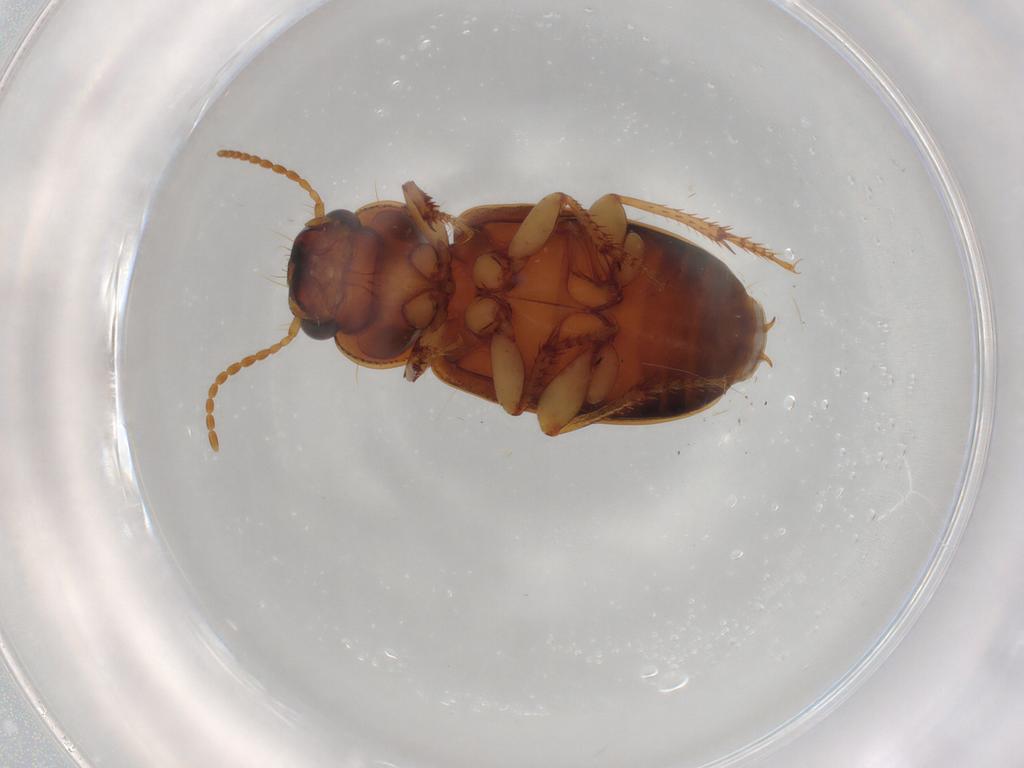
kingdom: Animalia
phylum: Arthropoda
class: Insecta
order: Coleoptera
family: Carabidae
